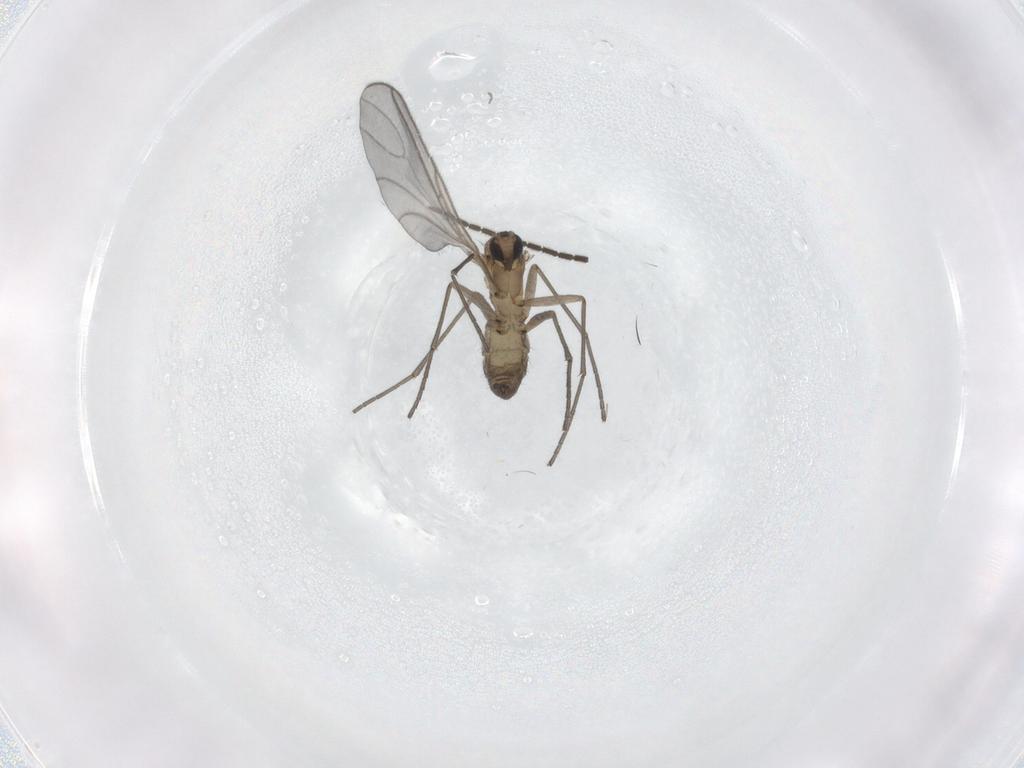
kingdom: Animalia
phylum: Arthropoda
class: Insecta
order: Diptera
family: Sciaridae
